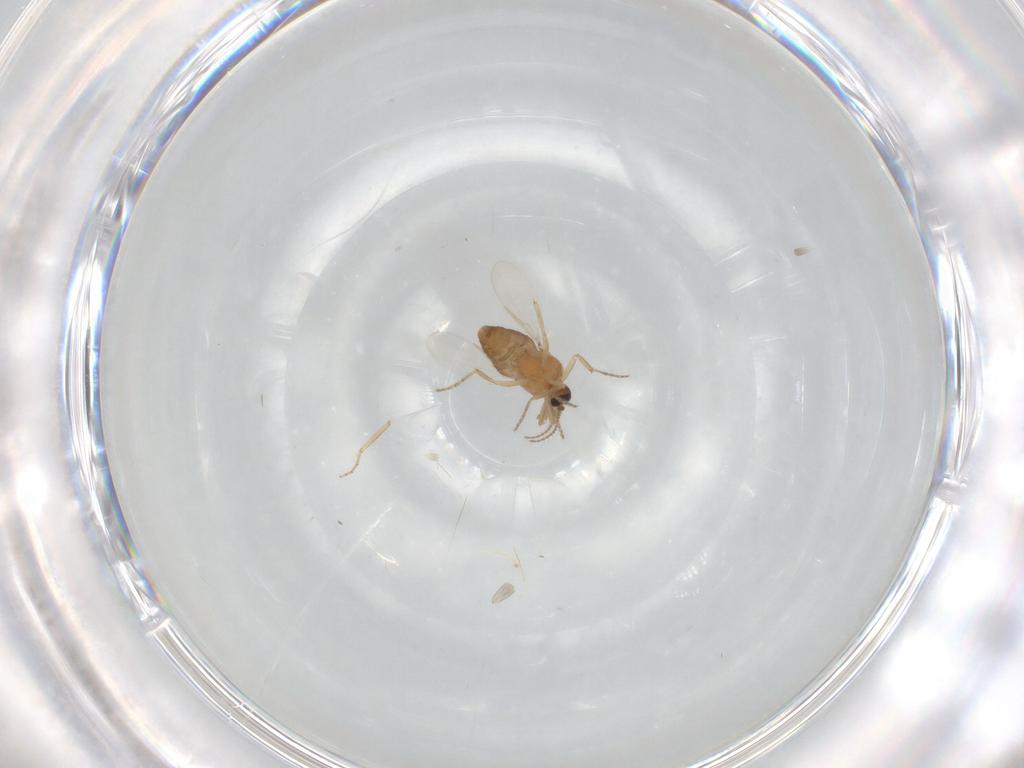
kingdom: Animalia
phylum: Arthropoda
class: Insecta
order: Diptera
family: Ceratopogonidae
